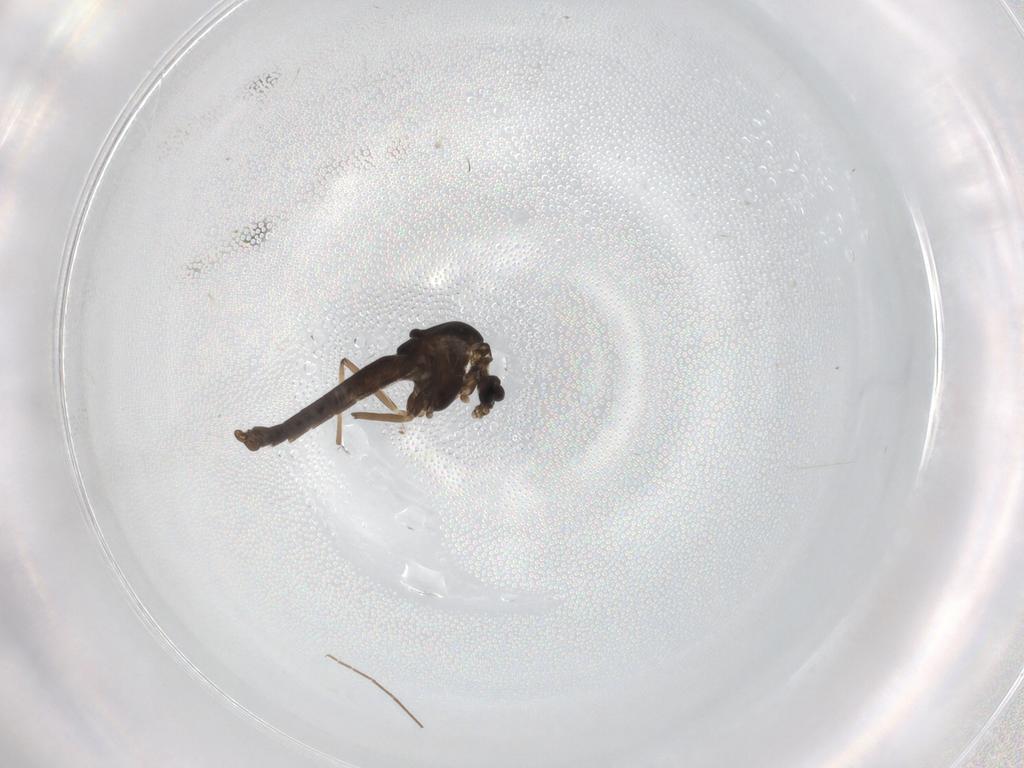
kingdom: Animalia
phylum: Arthropoda
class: Insecta
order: Diptera
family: Chironomidae
